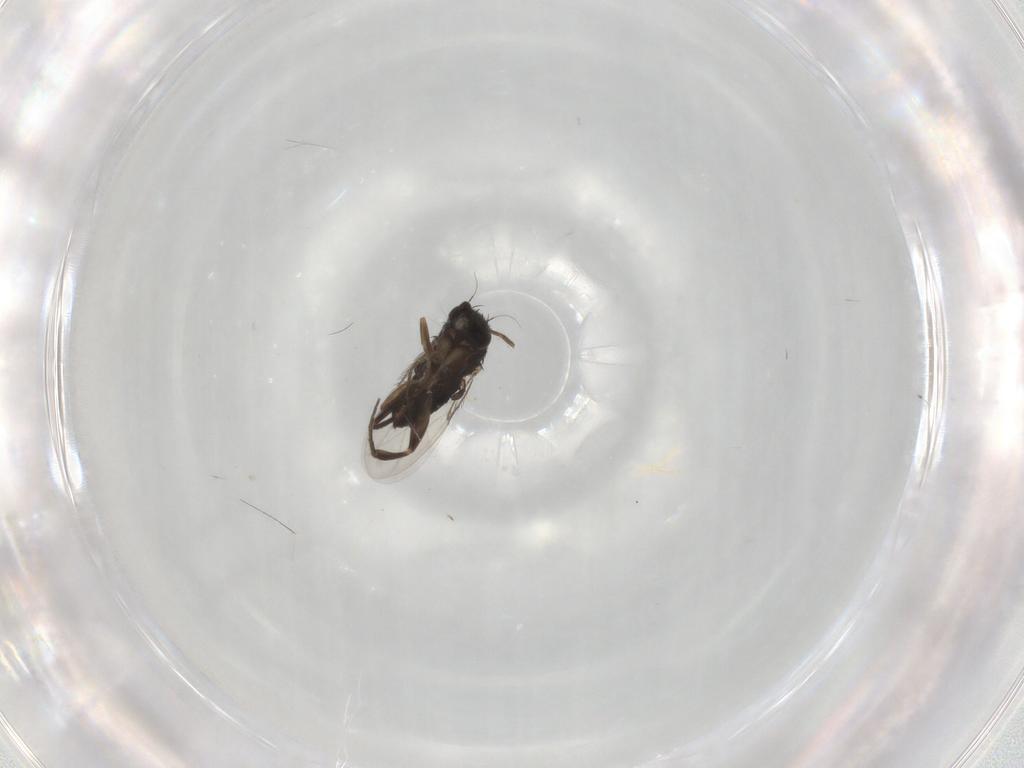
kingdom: Animalia
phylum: Arthropoda
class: Insecta
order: Diptera
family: Phoridae
